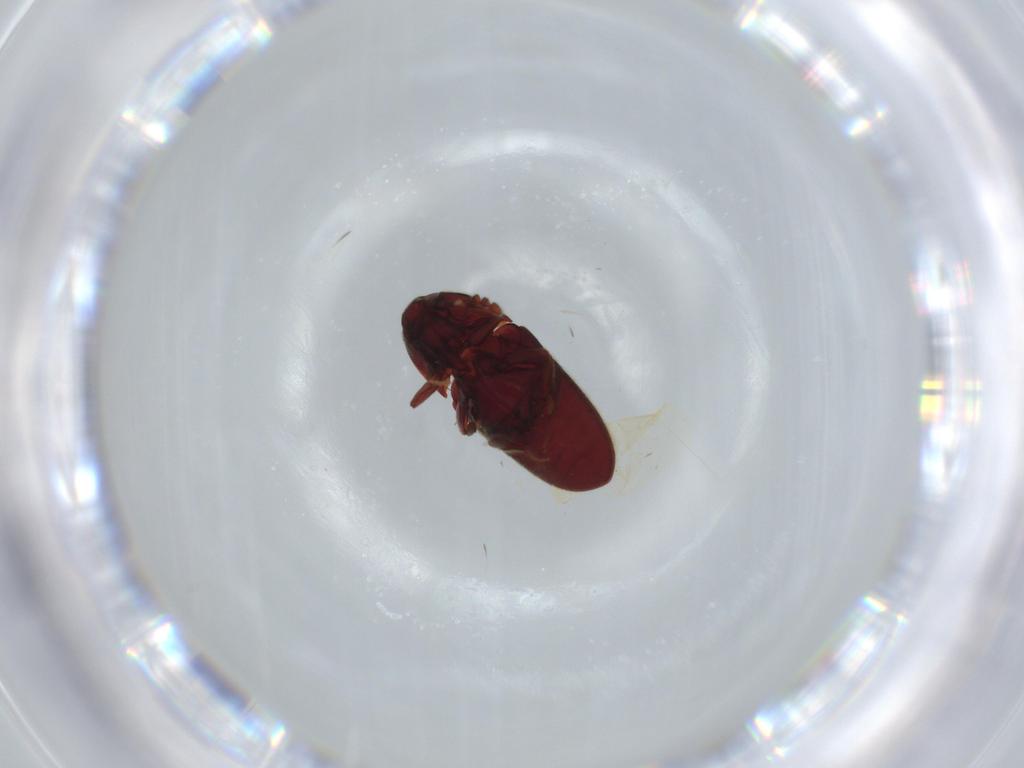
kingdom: Animalia
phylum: Arthropoda
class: Insecta
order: Coleoptera
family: Throscidae
